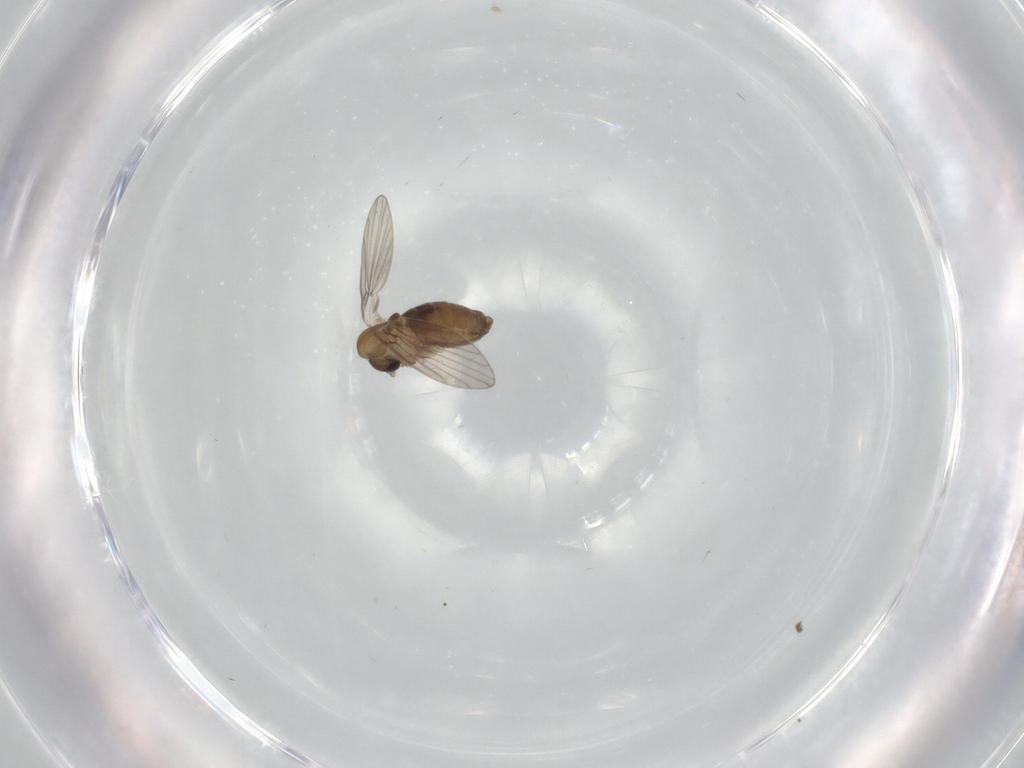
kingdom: Animalia
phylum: Arthropoda
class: Insecta
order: Diptera
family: Psychodidae
